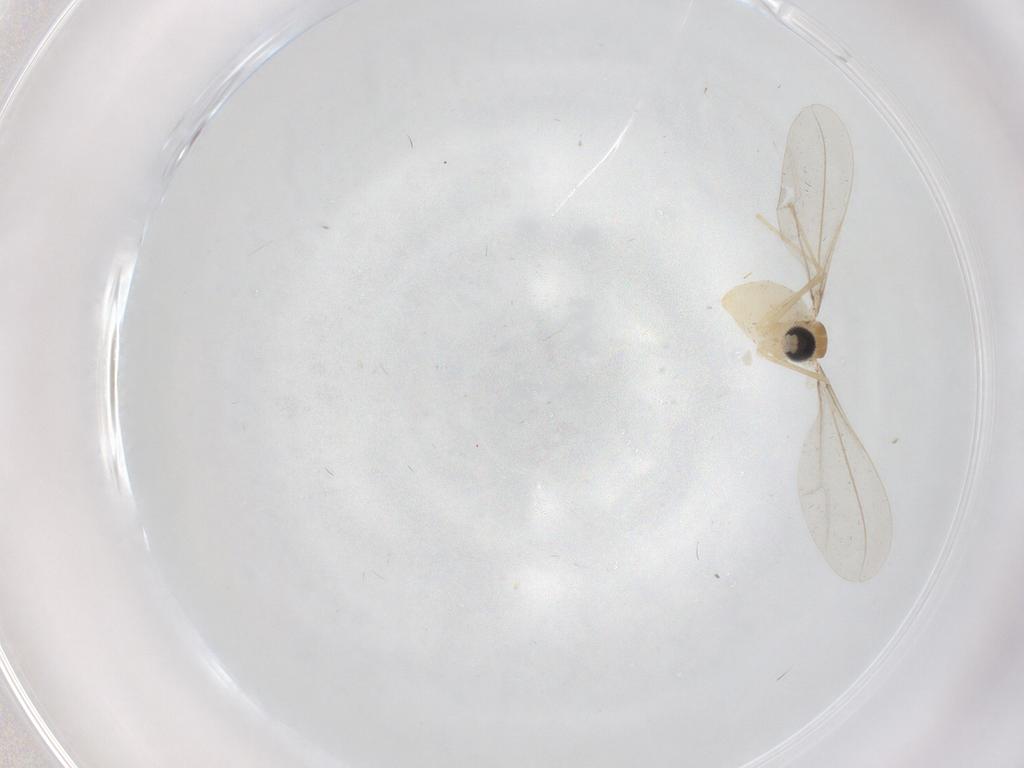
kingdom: Animalia
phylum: Arthropoda
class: Insecta
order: Diptera
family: Cecidomyiidae
